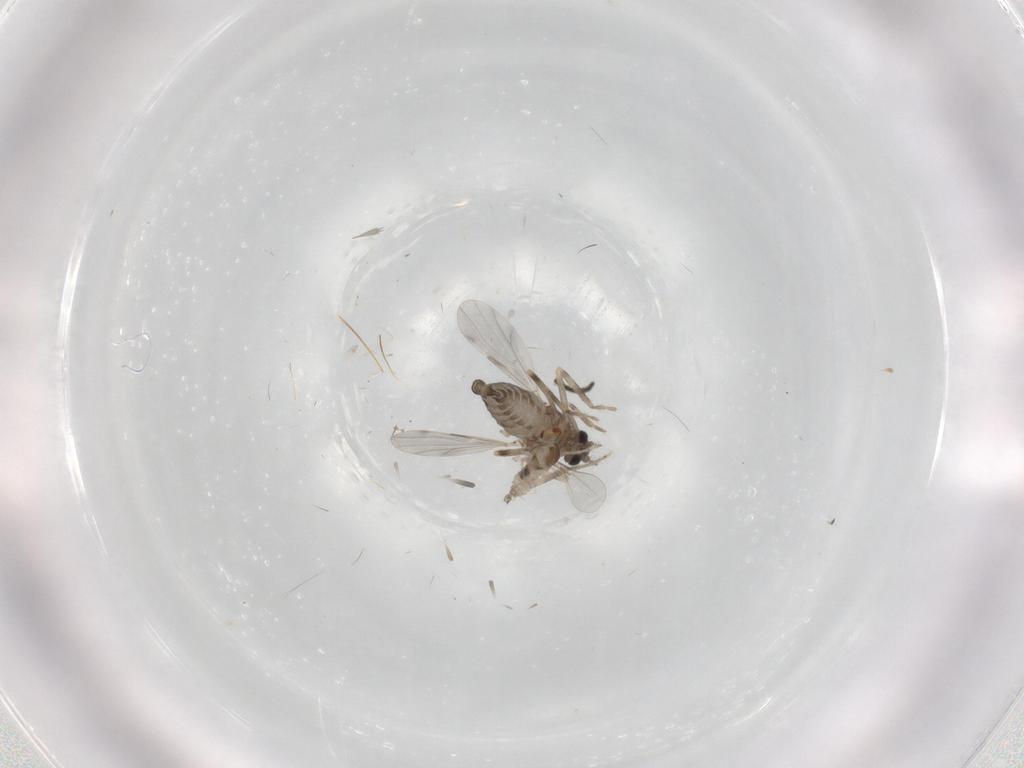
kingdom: Animalia
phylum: Arthropoda
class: Insecta
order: Diptera
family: Ceratopogonidae
